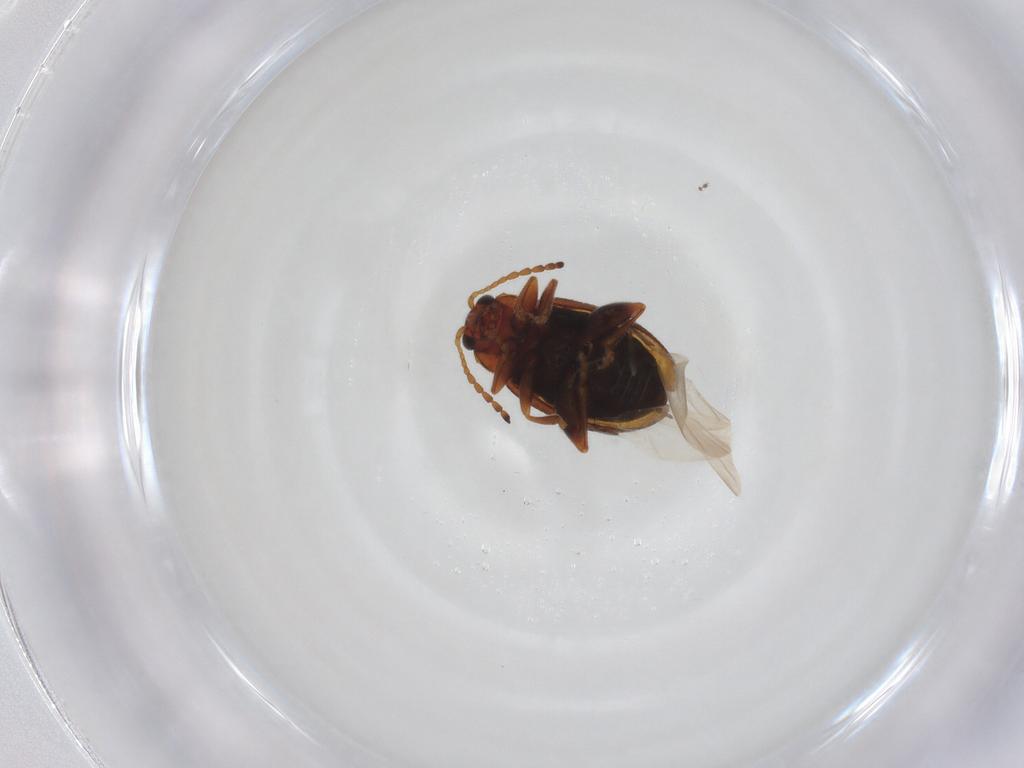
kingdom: Animalia
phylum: Arthropoda
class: Insecta
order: Coleoptera
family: Chrysomelidae
